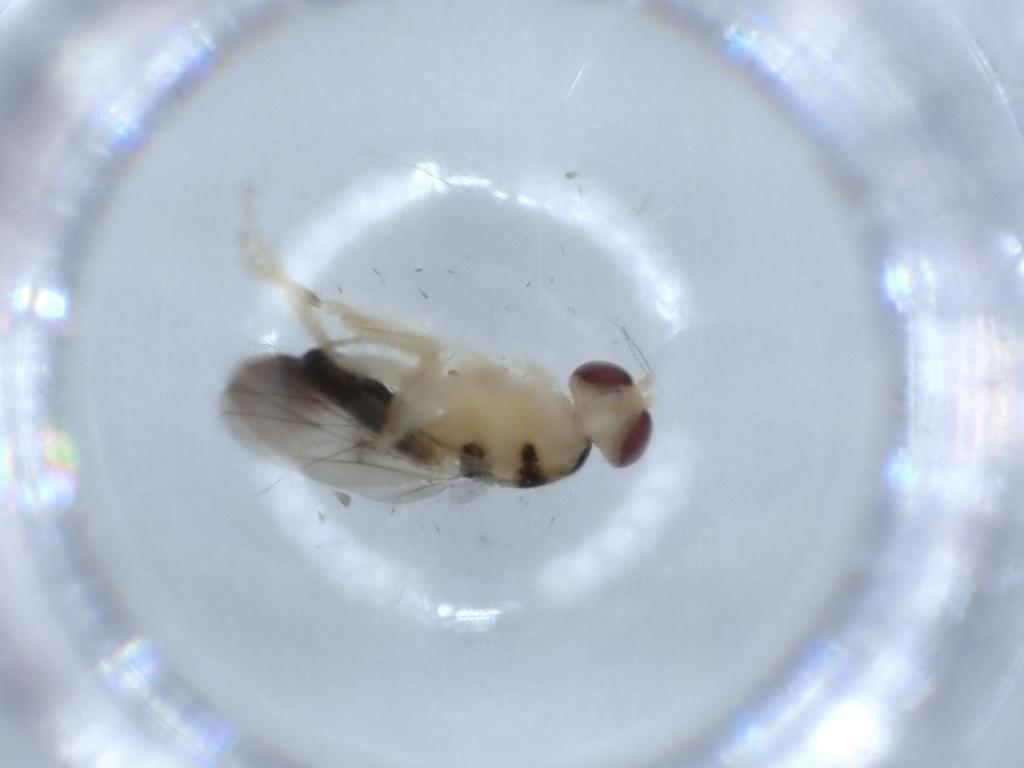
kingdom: Animalia
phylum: Arthropoda
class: Insecta
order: Diptera
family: Clusiidae
